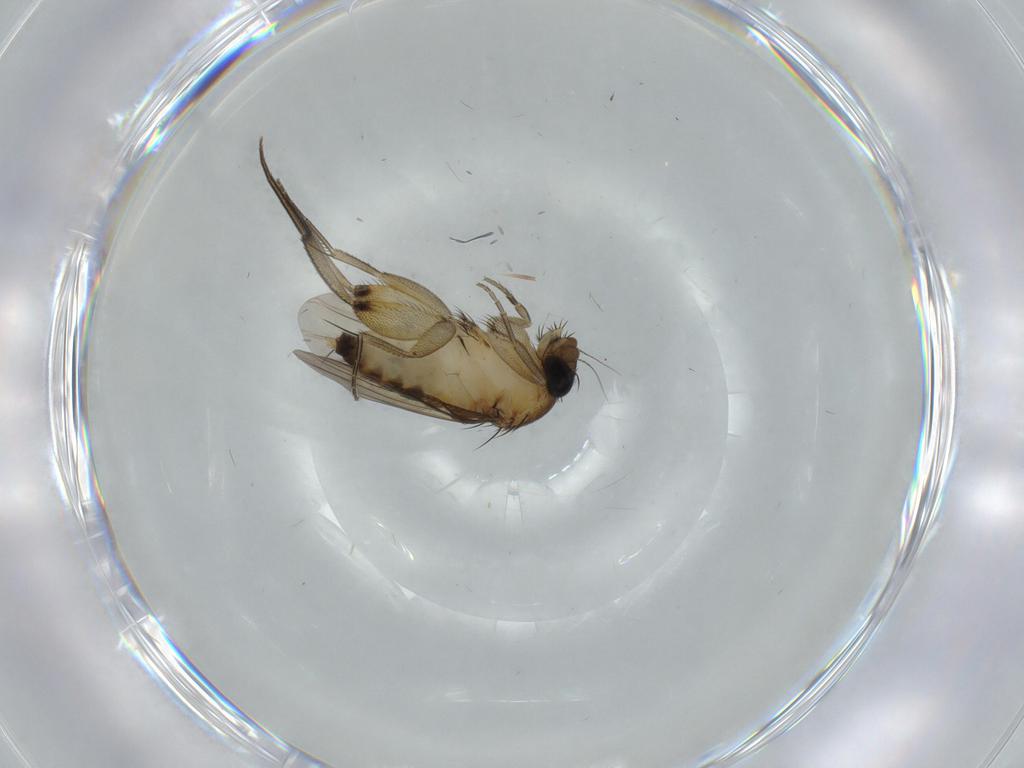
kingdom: Animalia
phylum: Arthropoda
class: Insecta
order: Diptera
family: Phoridae
